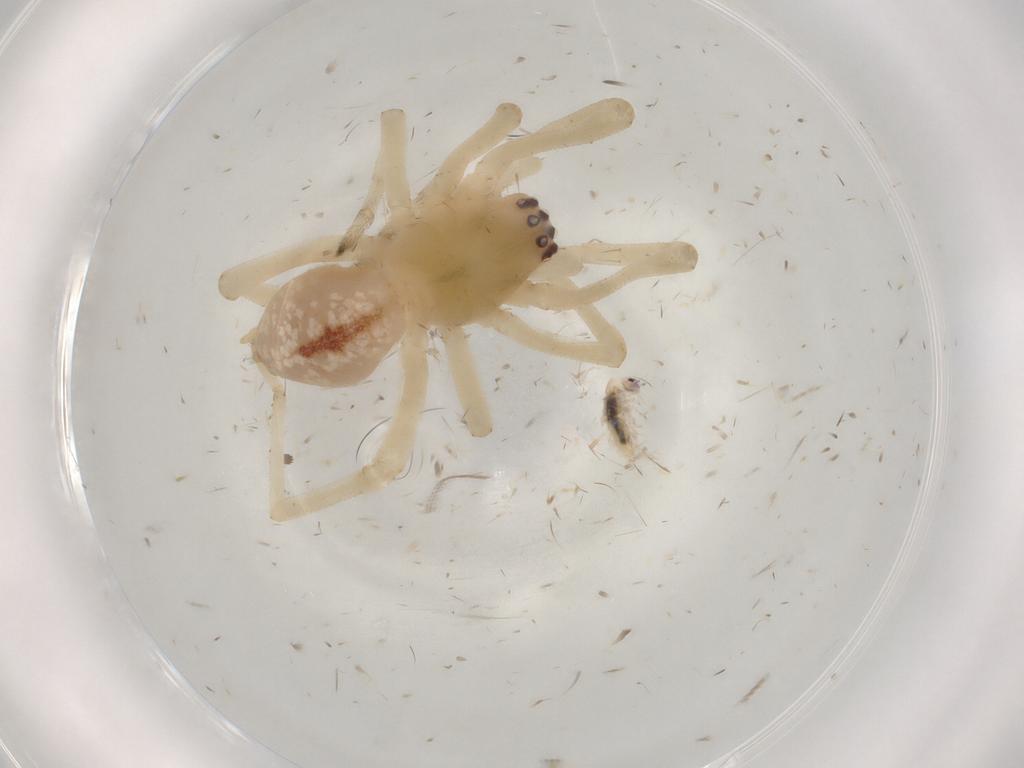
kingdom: Animalia
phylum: Arthropoda
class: Arachnida
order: Araneae
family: Cheiracanthiidae
